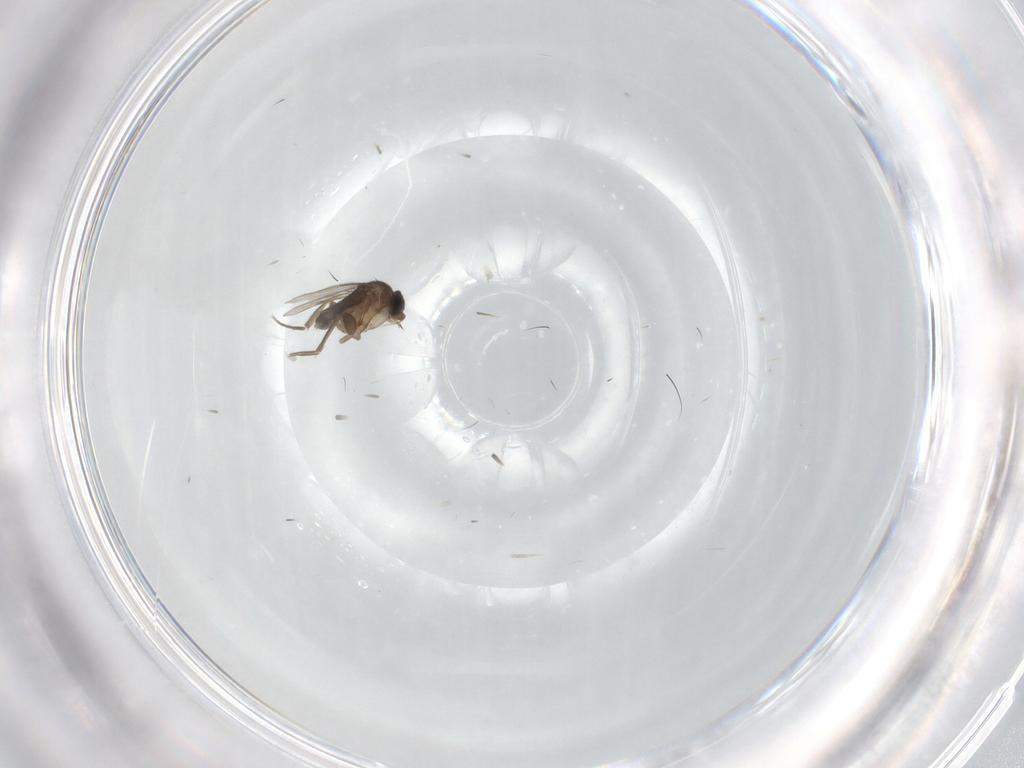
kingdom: Animalia
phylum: Arthropoda
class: Insecta
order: Diptera
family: Phoridae
